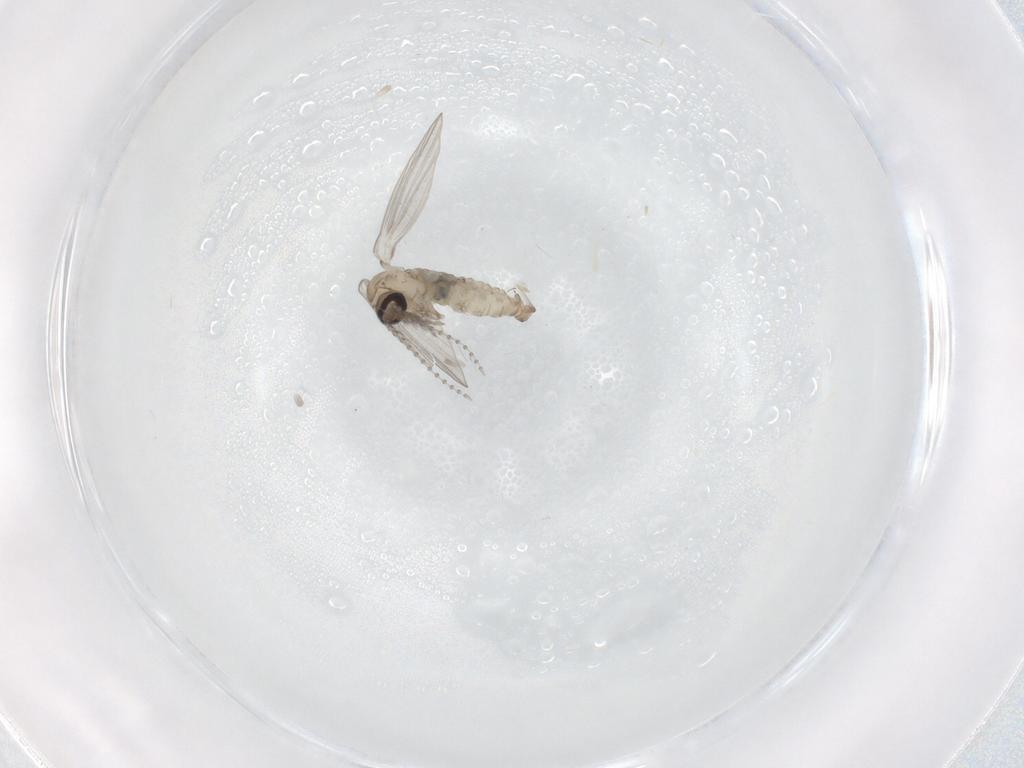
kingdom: Animalia
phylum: Arthropoda
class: Insecta
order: Diptera
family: Psychodidae
